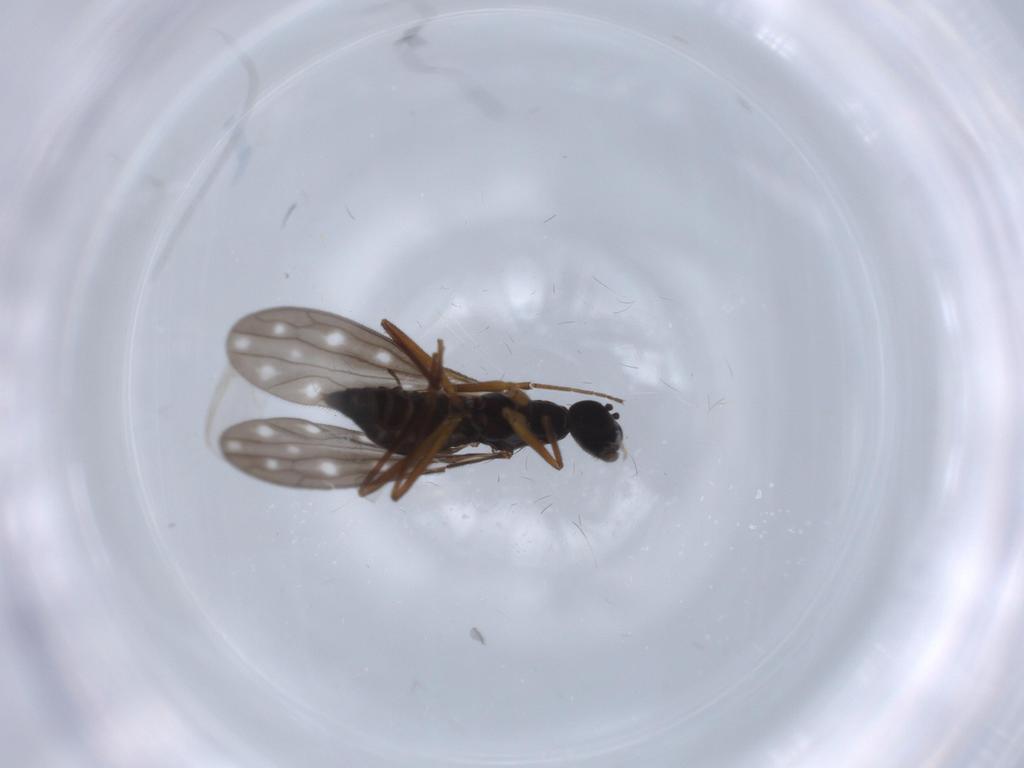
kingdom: Animalia
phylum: Arthropoda
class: Insecta
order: Diptera
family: Empididae
